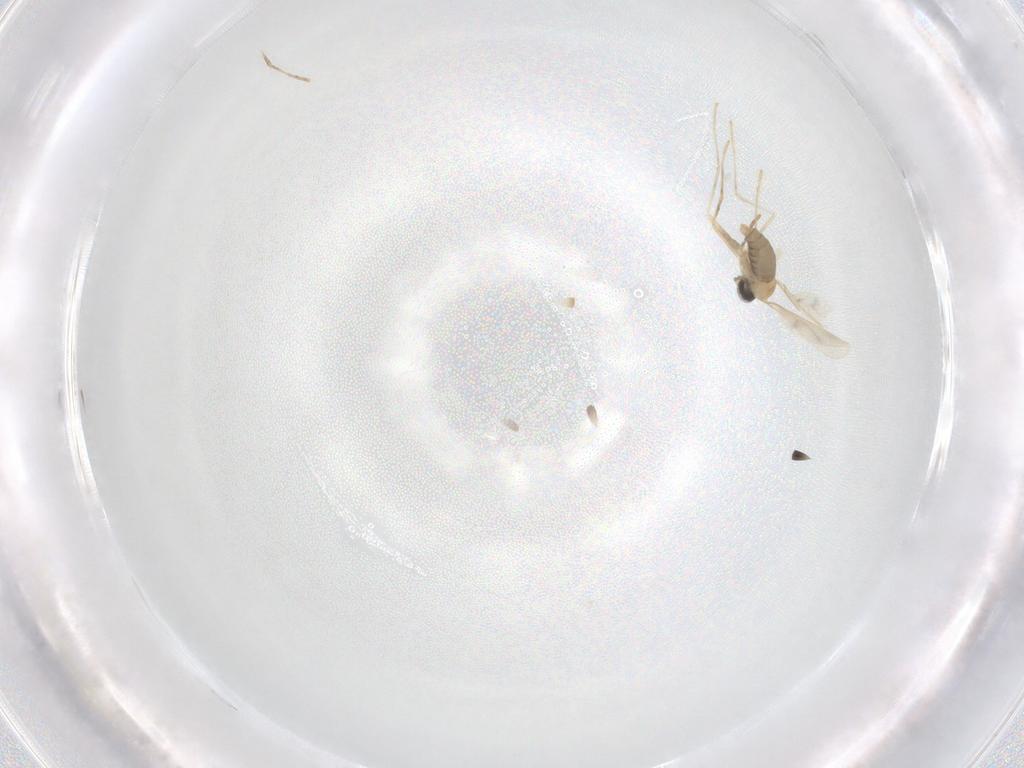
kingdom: Animalia
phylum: Arthropoda
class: Insecta
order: Diptera
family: Cecidomyiidae
